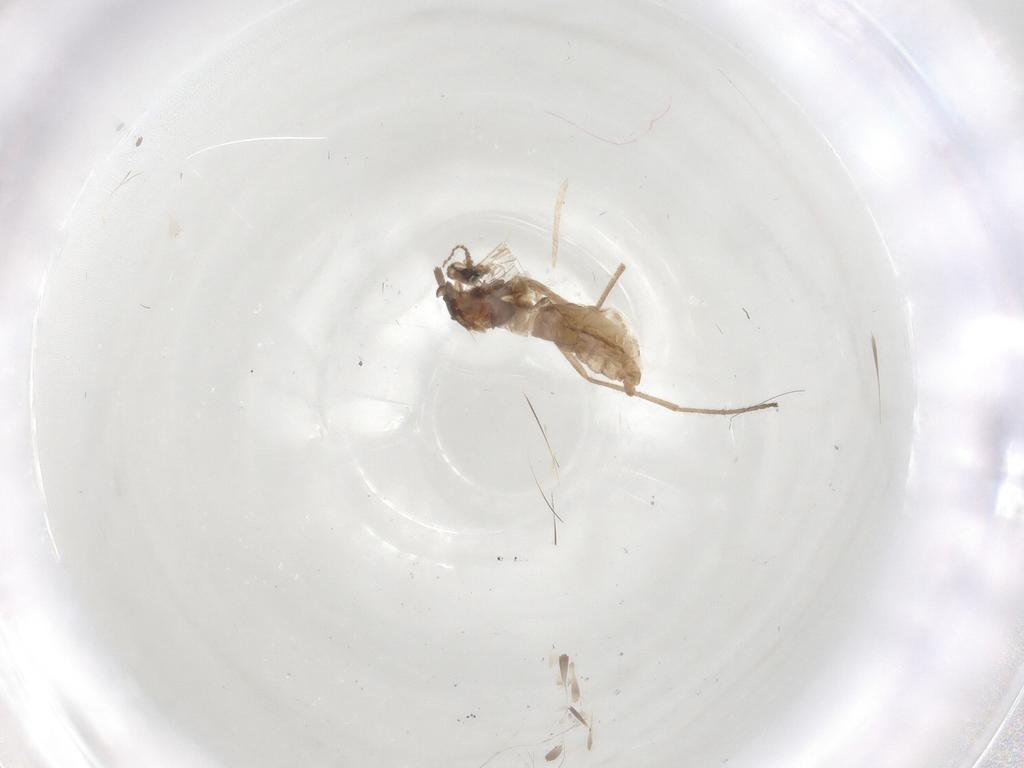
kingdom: Animalia
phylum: Arthropoda
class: Insecta
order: Diptera
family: Cecidomyiidae
